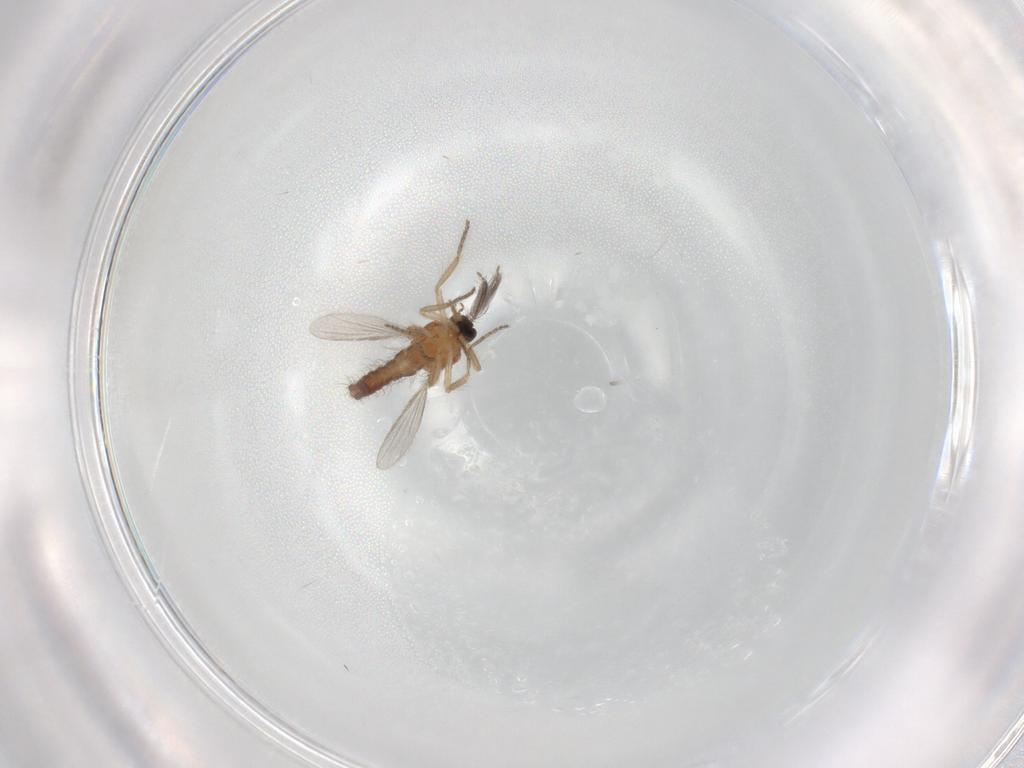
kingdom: Animalia
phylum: Arthropoda
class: Insecta
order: Diptera
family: Ceratopogonidae
